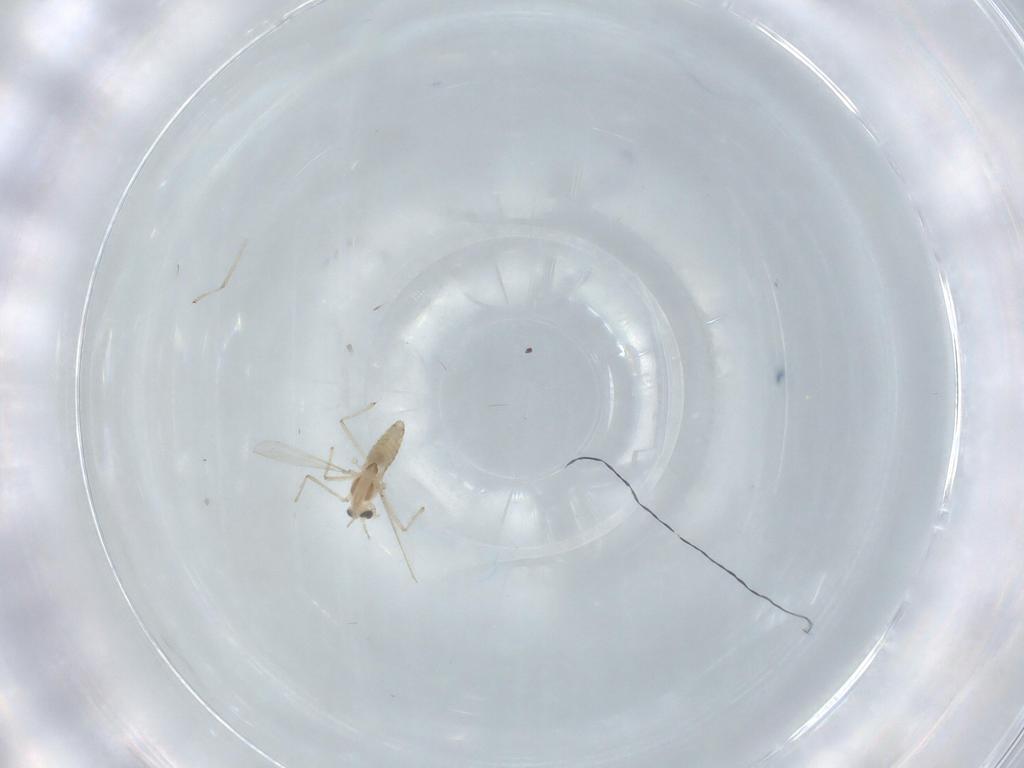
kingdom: Animalia
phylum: Arthropoda
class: Insecta
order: Diptera
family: Chironomidae
